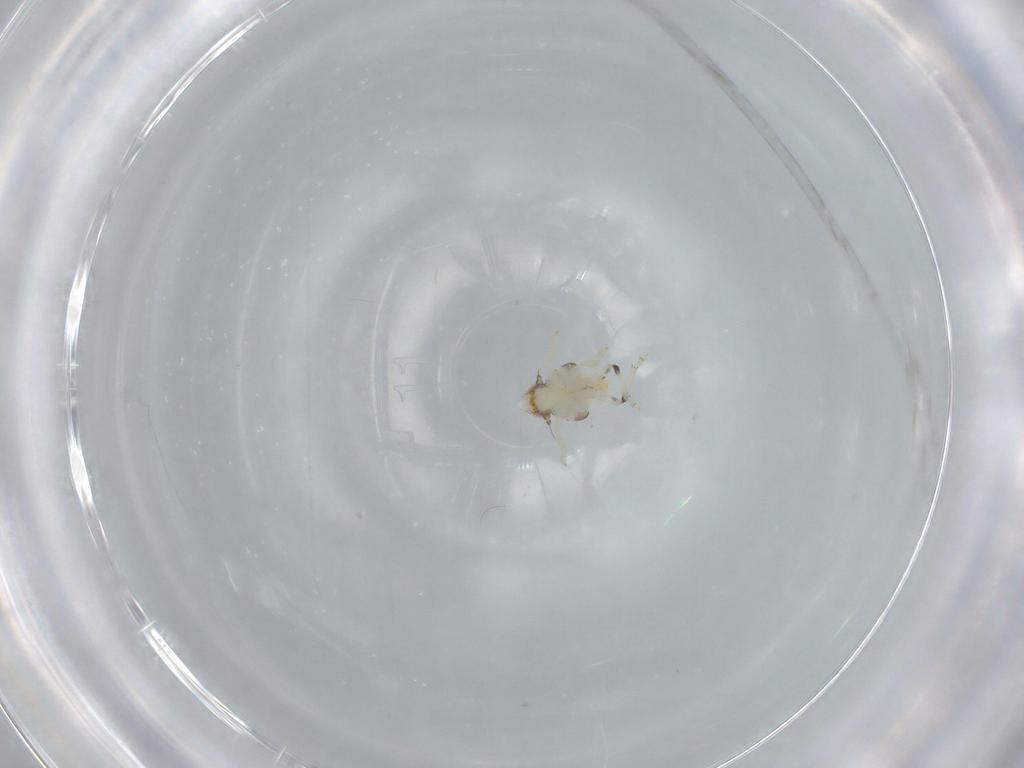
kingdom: Animalia
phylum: Arthropoda
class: Insecta
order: Hemiptera
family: Nogodinidae
